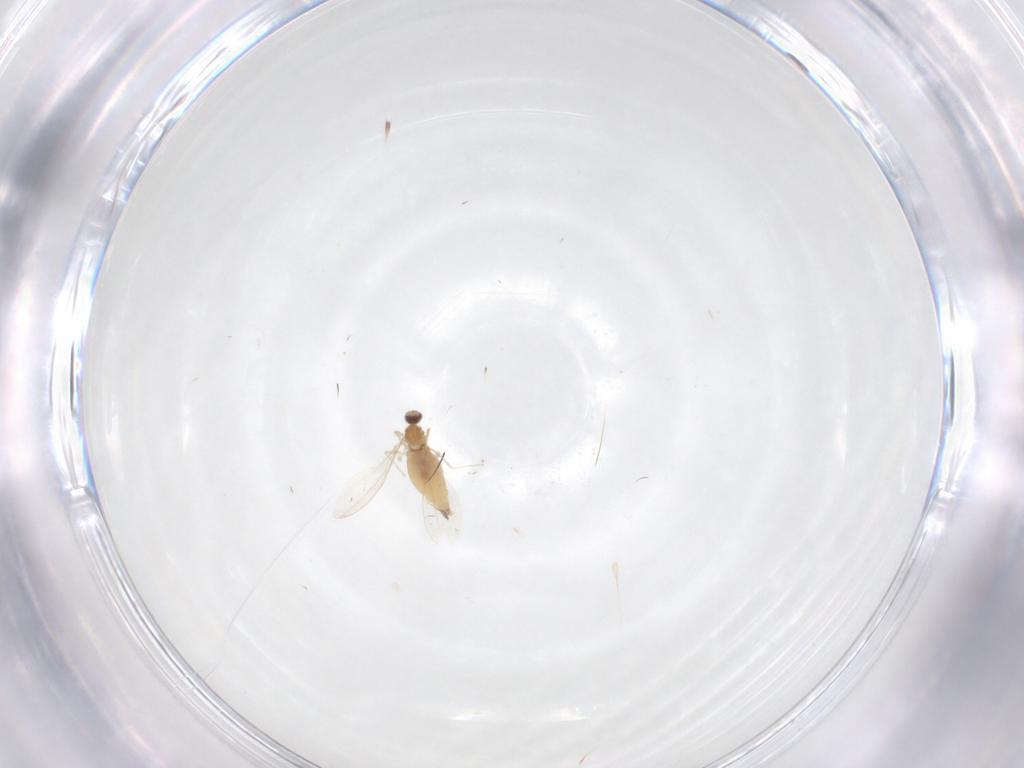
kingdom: Animalia
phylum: Arthropoda
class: Insecta
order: Diptera
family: Cecidomyiidae
